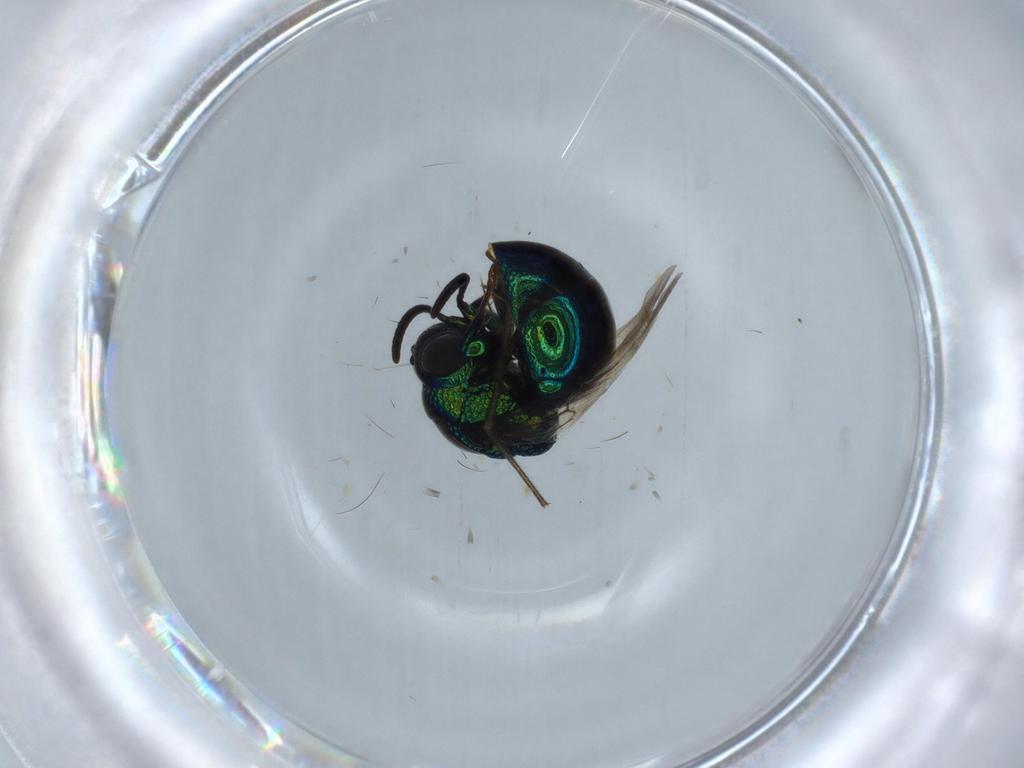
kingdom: Animalia
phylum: Arthropoda
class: Insecta
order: Hymenoptera
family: Chrysididae
